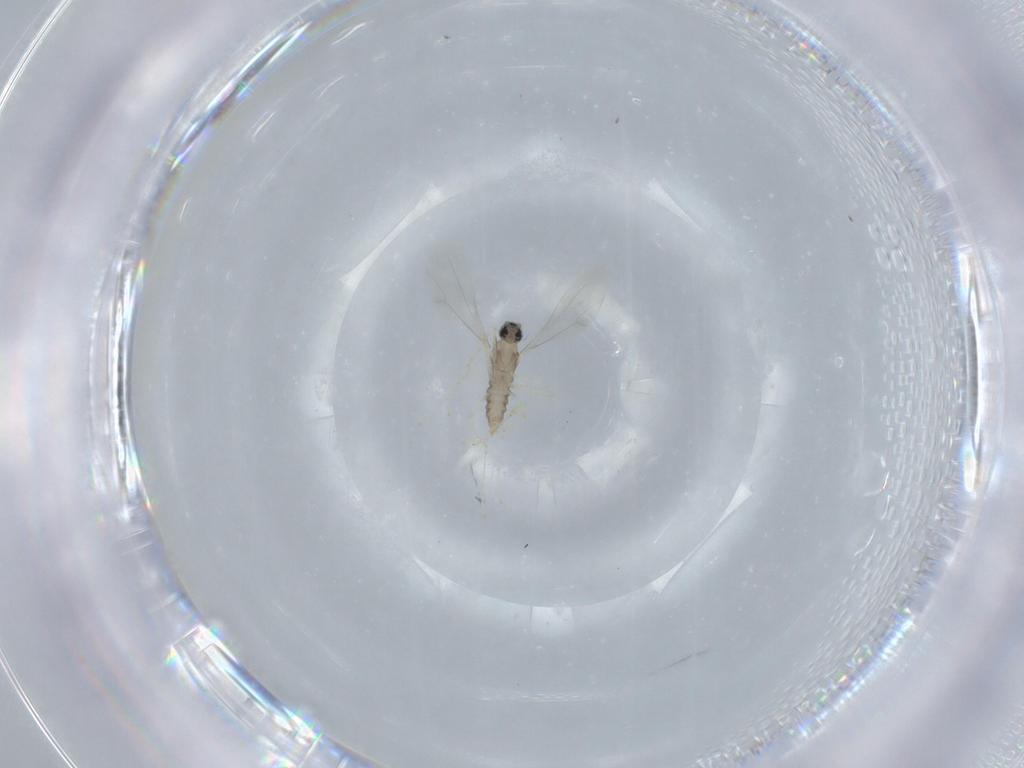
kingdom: Animalia
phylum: Arthropoda
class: Insecta
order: Diptera
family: Cecidomyiidae
